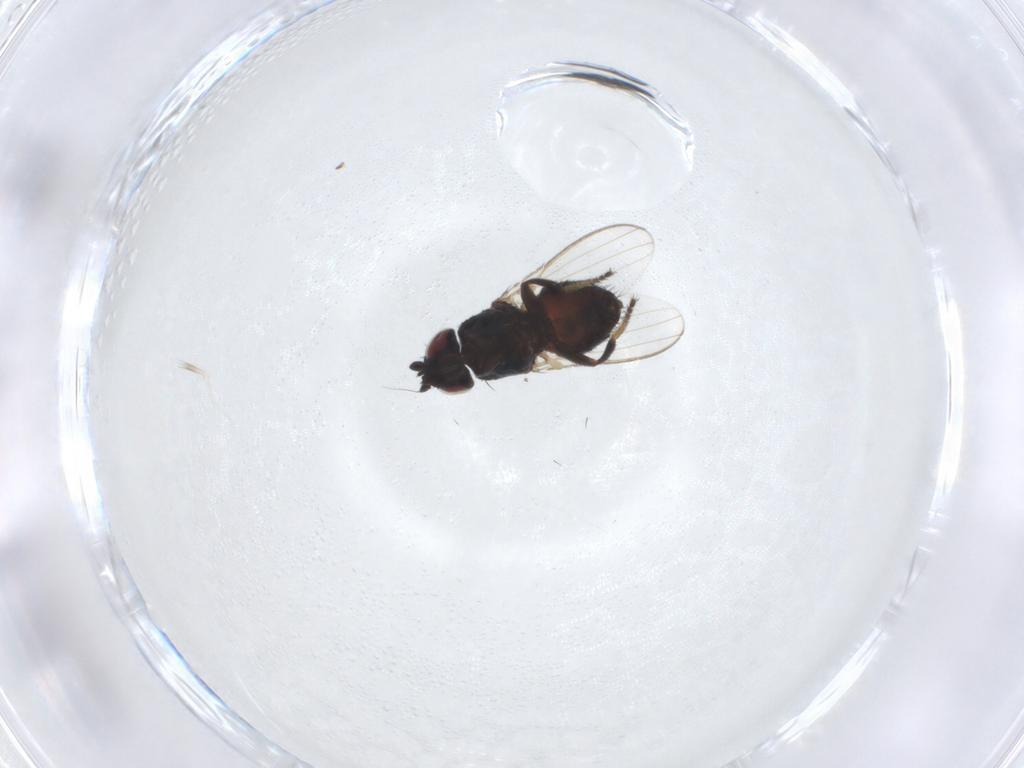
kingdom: Animalia
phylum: Arthropoda
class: Insecta
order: Diptera
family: Milichiidae
